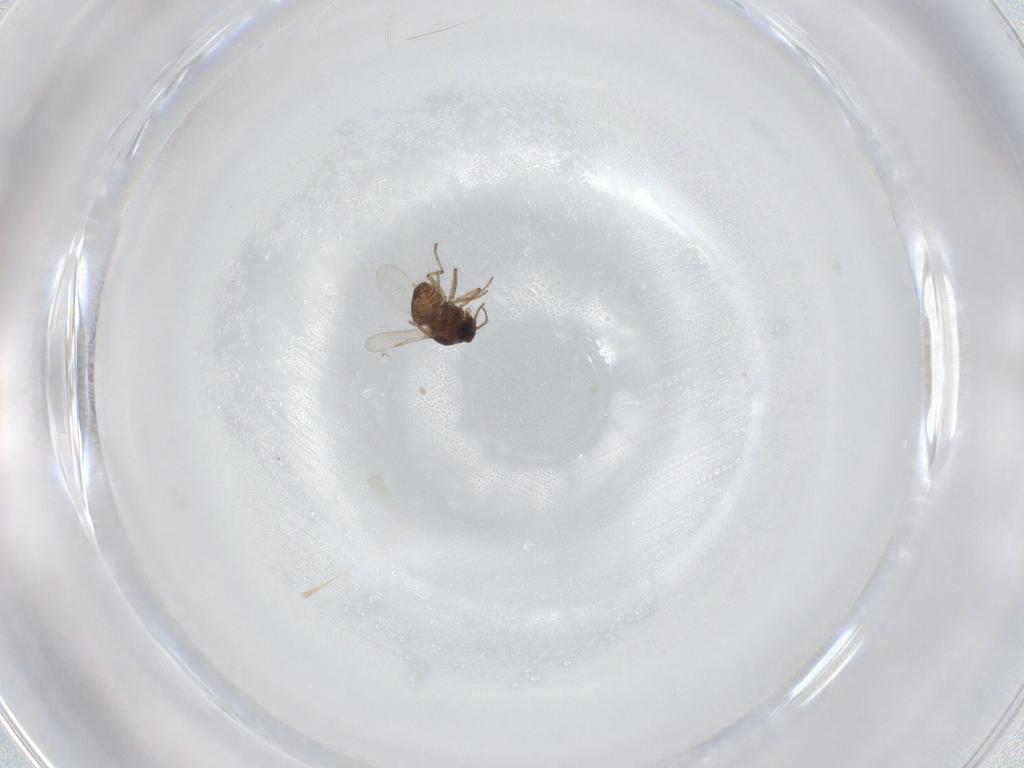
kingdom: Animalia
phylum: Arthropoda
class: Insecta
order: Diptera
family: Ceratopogonidae
